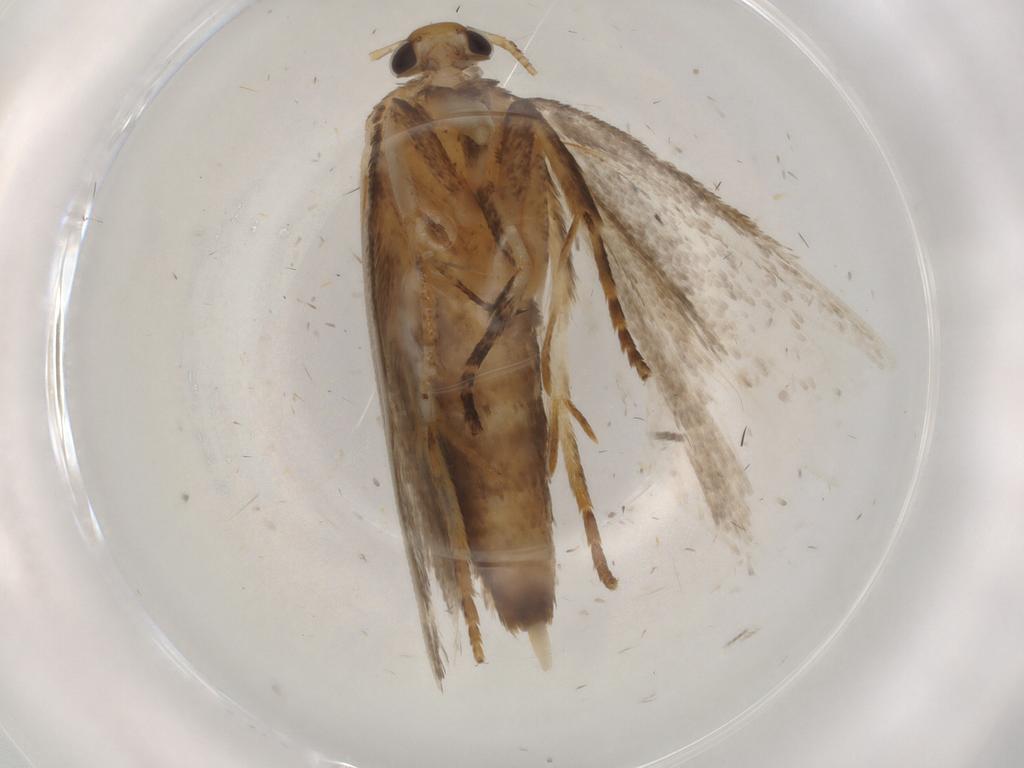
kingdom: Animalia
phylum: Arthropoda
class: Insecta
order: Lepidoptera
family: Gelechiidae
